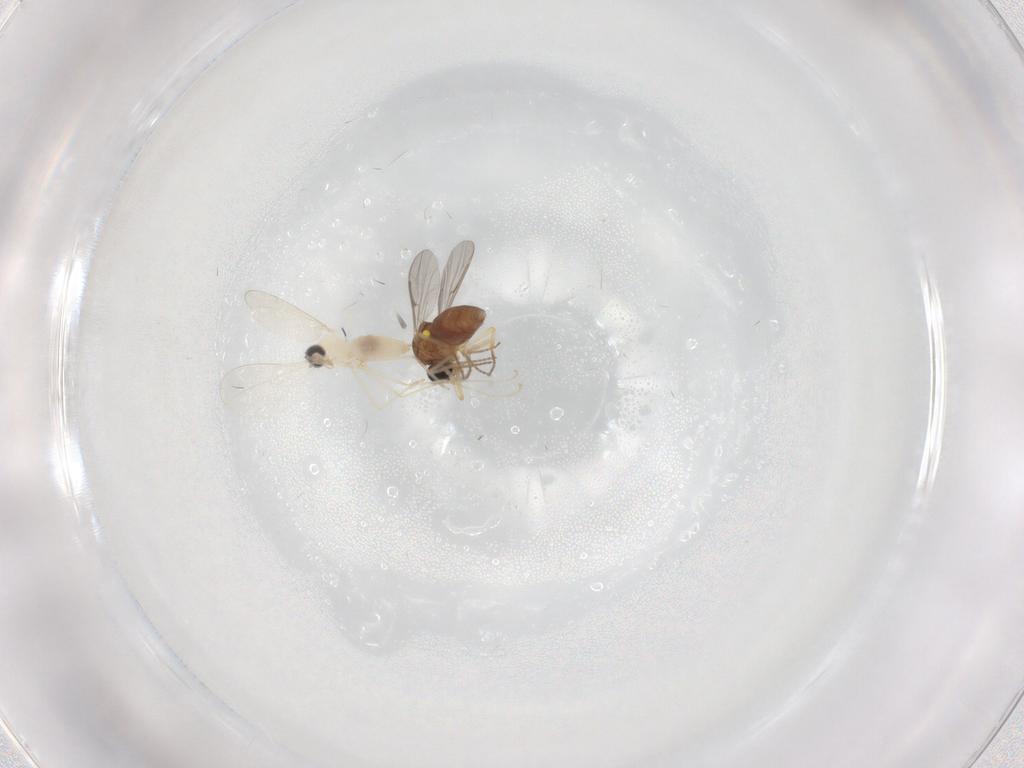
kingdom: Animalia
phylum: Arthropoda
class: Insecta
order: Diptera
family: Ceratopogonidae
